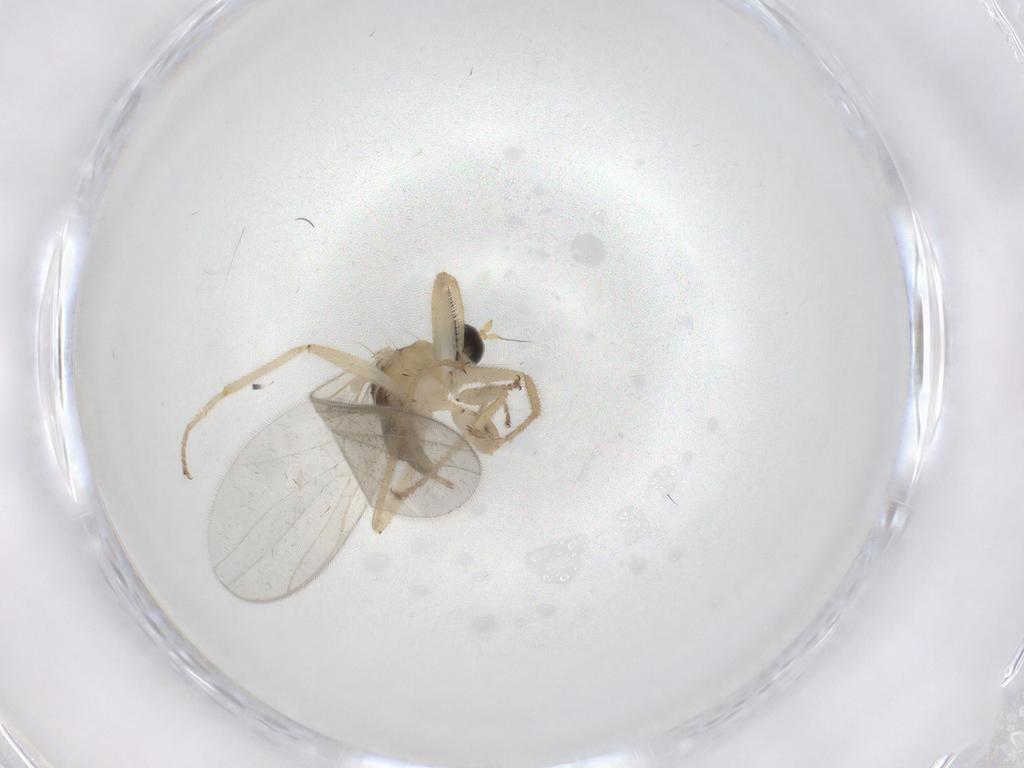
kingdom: Animalia
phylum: Arthropoda
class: Insecta
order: Diptera
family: Hybotidae
